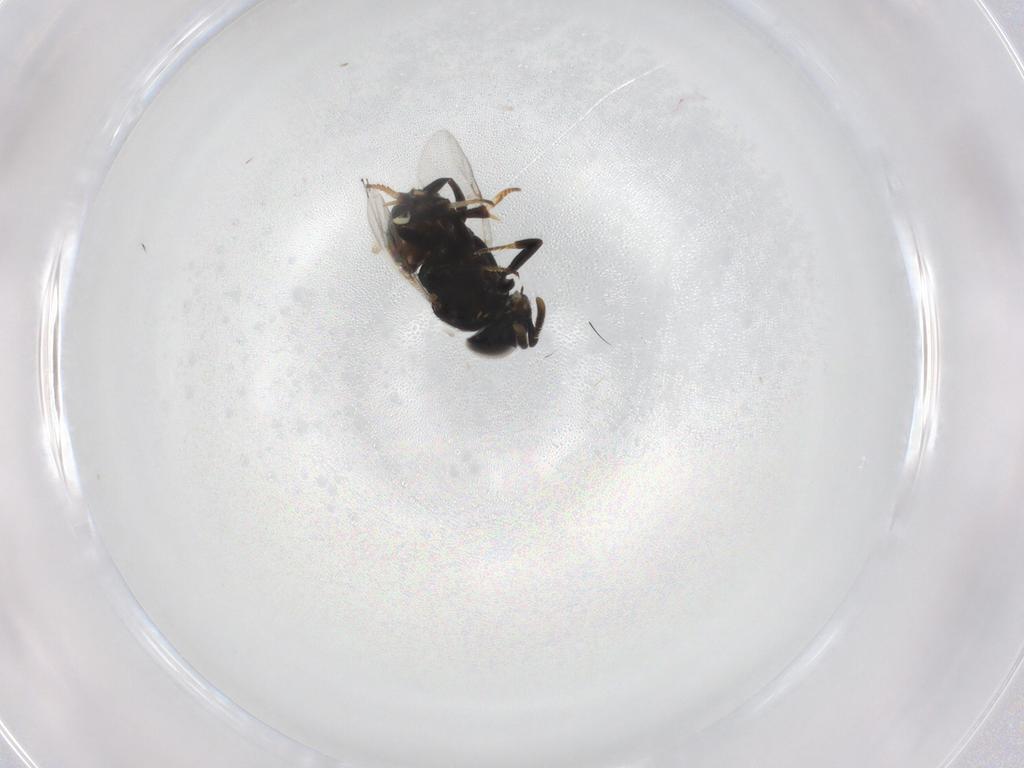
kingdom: Animalia
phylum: Arthropoda
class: Insecta
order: Hymenoptera
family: Encyrtidae
